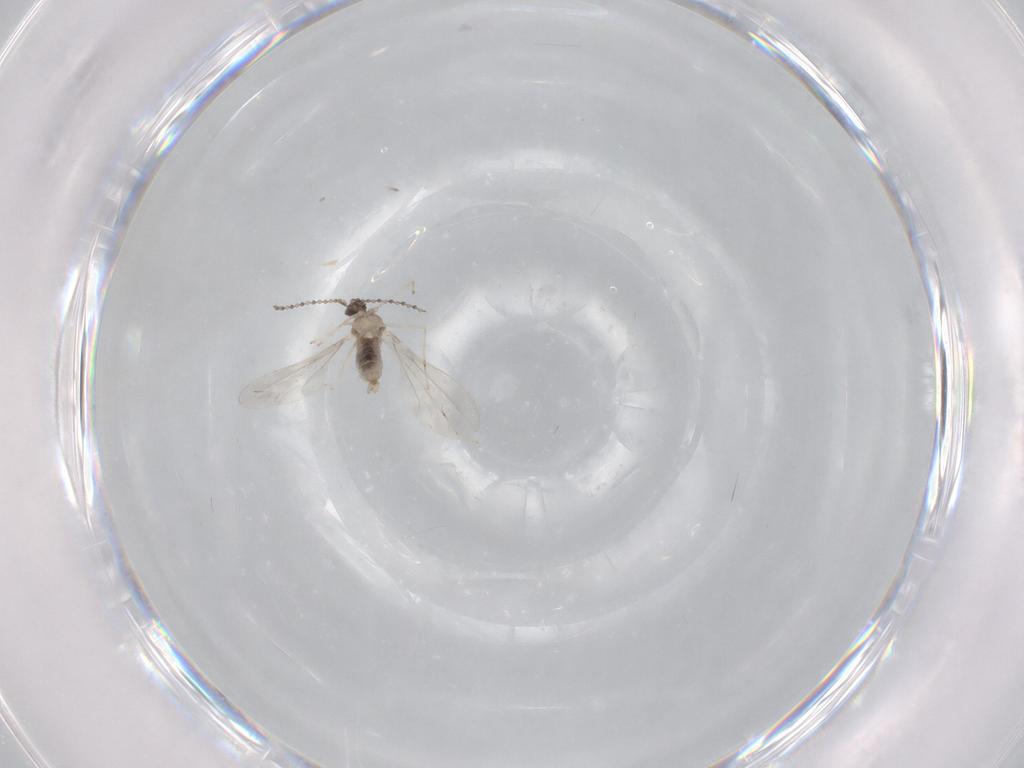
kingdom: Animalia
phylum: Arthropoda
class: Insecta
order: Diptera
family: Cecidomyiidae
